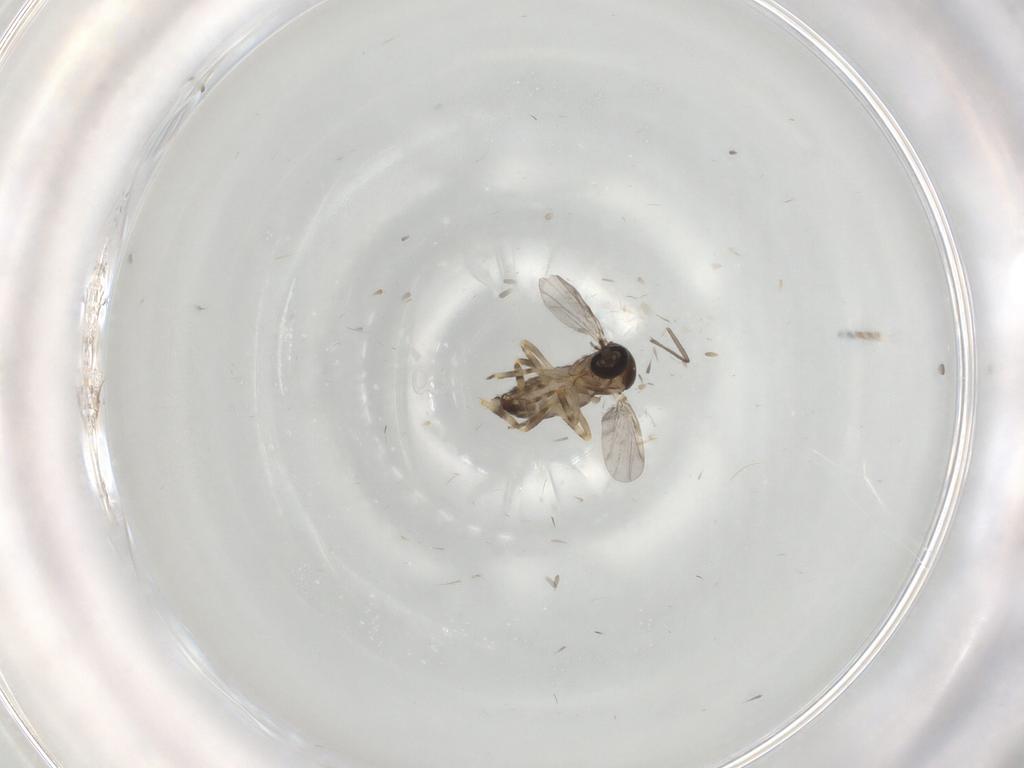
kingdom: Animalia
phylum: Arthropoda
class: Insecta
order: Diptera
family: Ceratopogonidae
